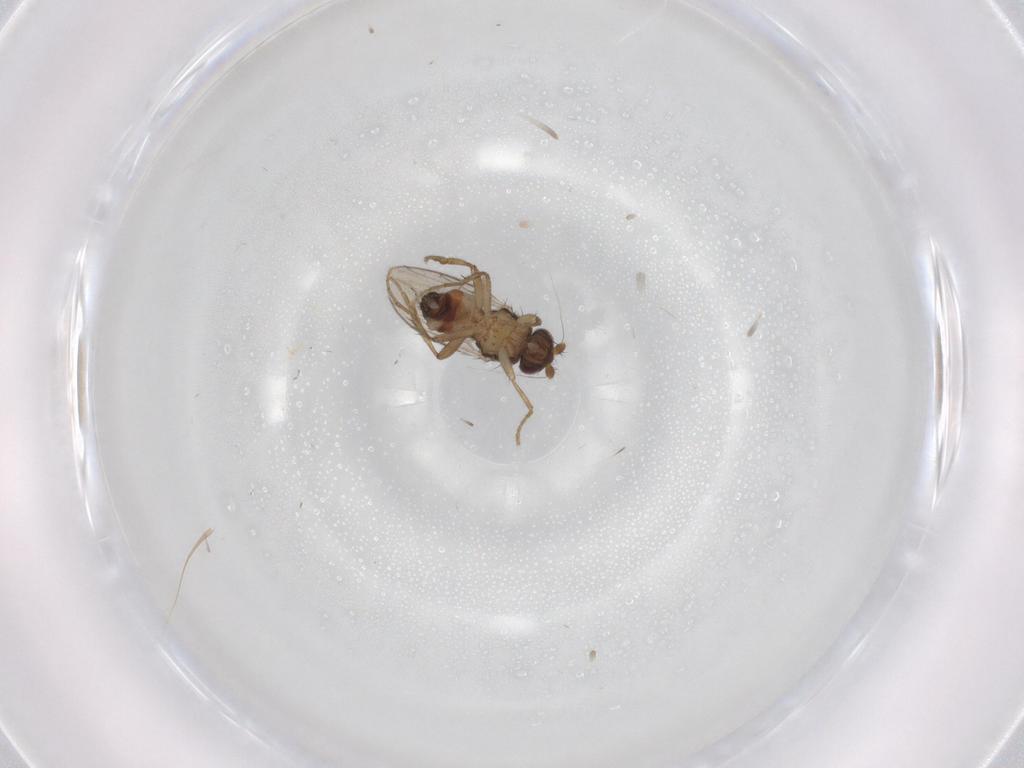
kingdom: Animalia
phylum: Arthropoda
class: Insecta
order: Diptera
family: Sphaeroceridae
